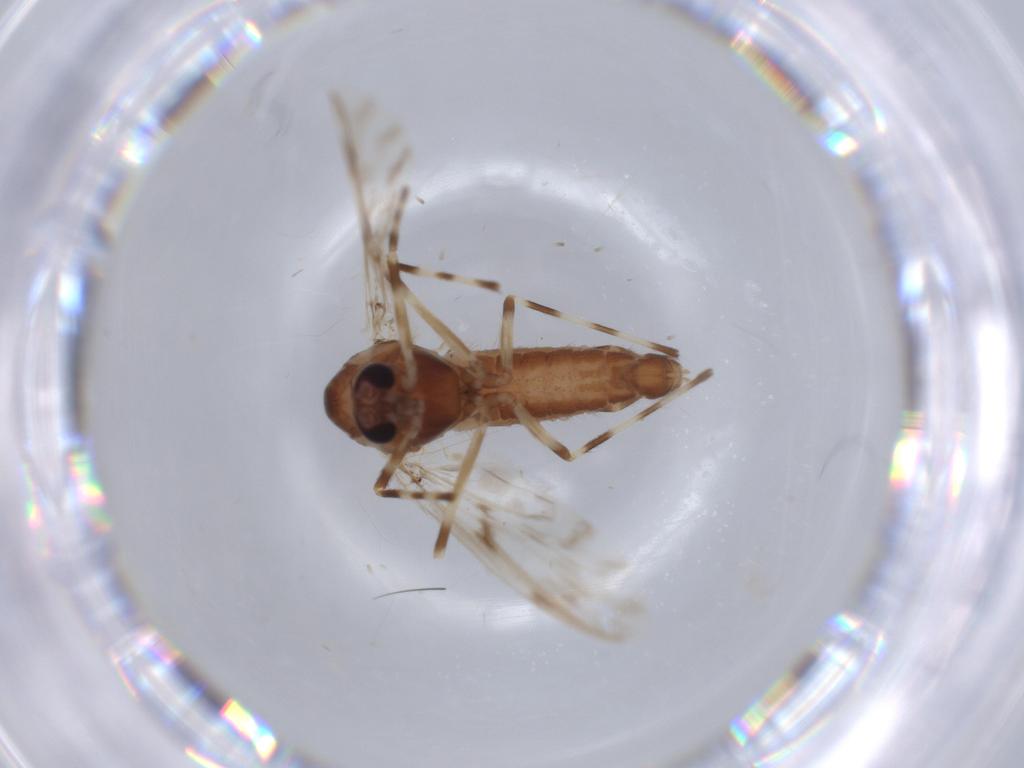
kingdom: Animalia
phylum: Arthropoda
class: Insecta
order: Diptera
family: Chironomidae
